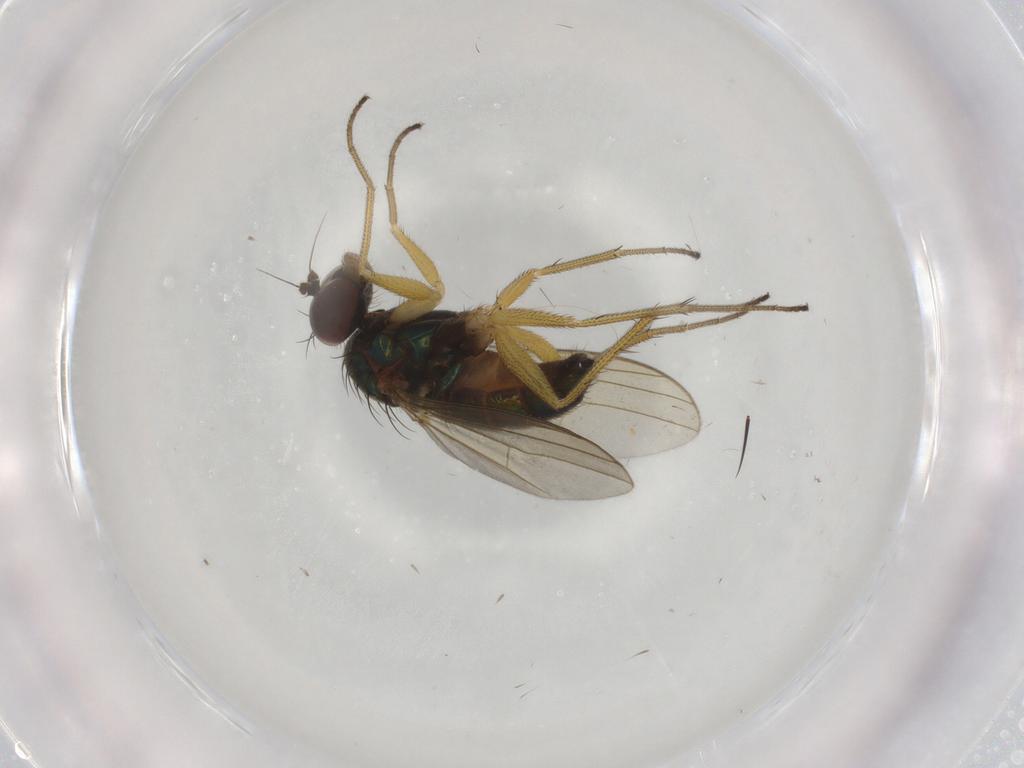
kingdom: Animalia
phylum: Arthropoda
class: Insecta
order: Diptera
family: Dolichopodidae
